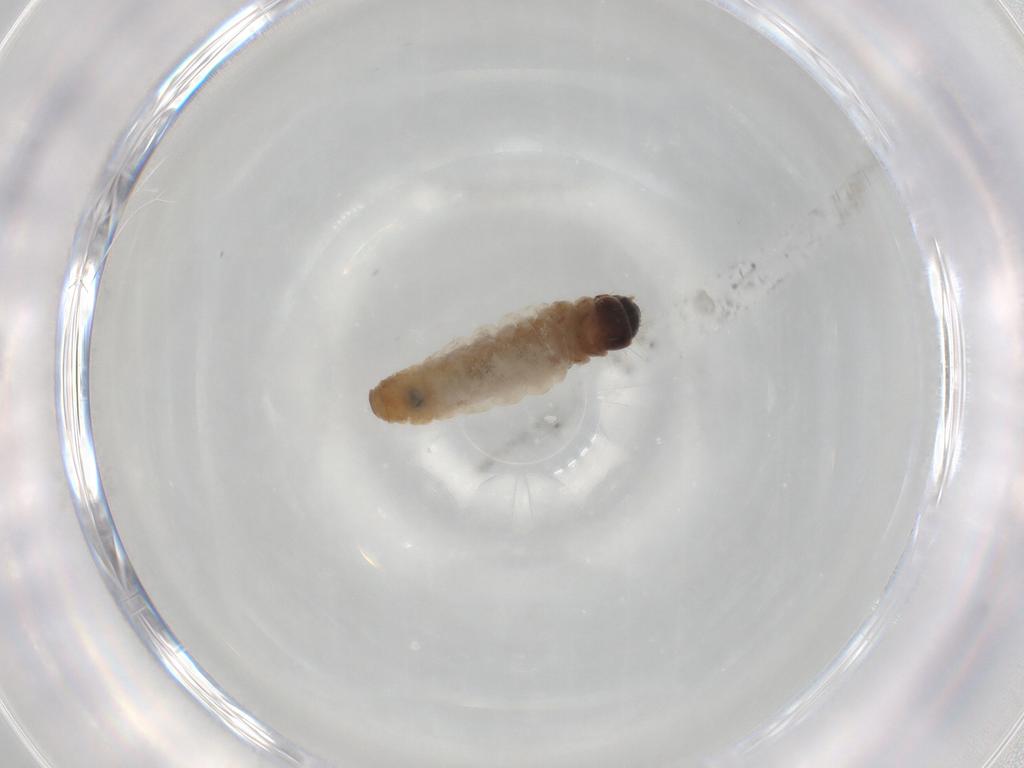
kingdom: Animalia
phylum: Arthropoda
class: Insecta
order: Lepidoptera
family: Psychidae
